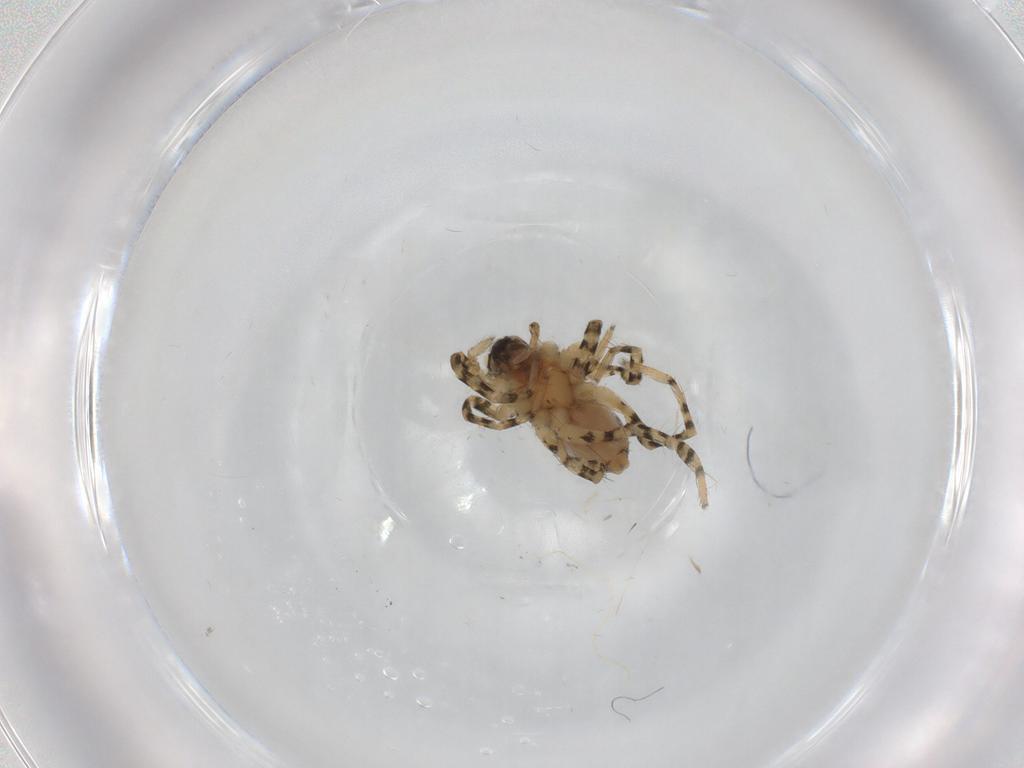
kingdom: Animalia
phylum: Arthropoda
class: Arachnida
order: Araneae
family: Lycosidae
